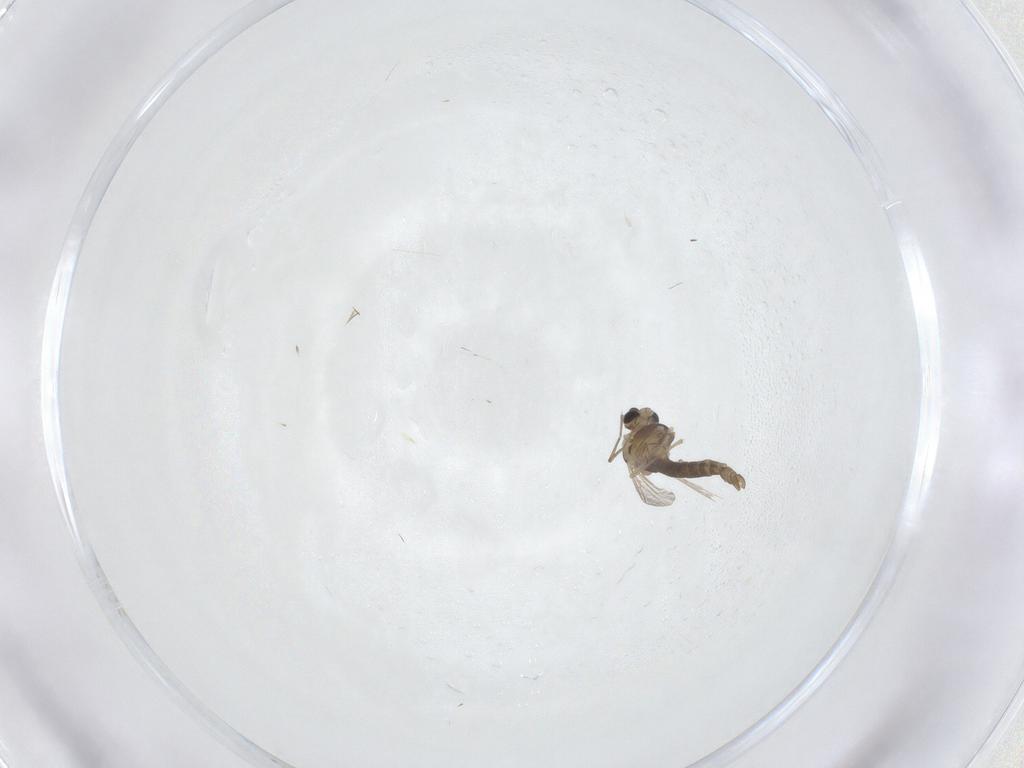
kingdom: Animalia
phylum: Arthropoda
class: Insecta
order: Diptera
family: Chironomidae
